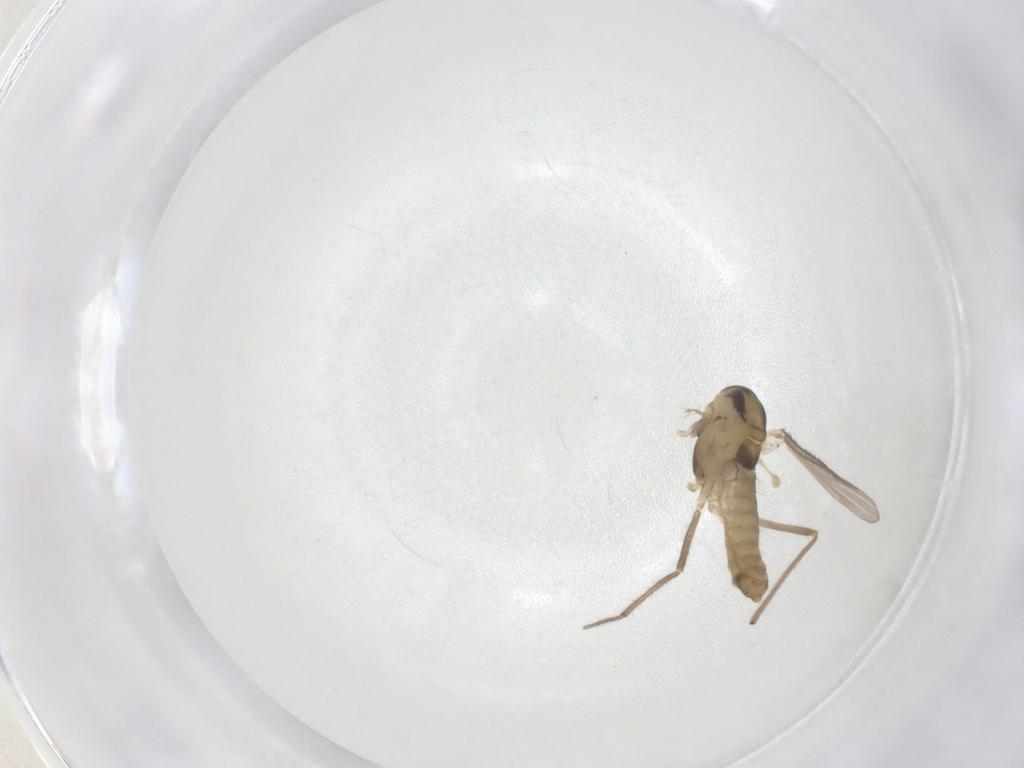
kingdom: Animalia
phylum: Arthropoda
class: Insecta
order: Diptera
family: Chironomidae
